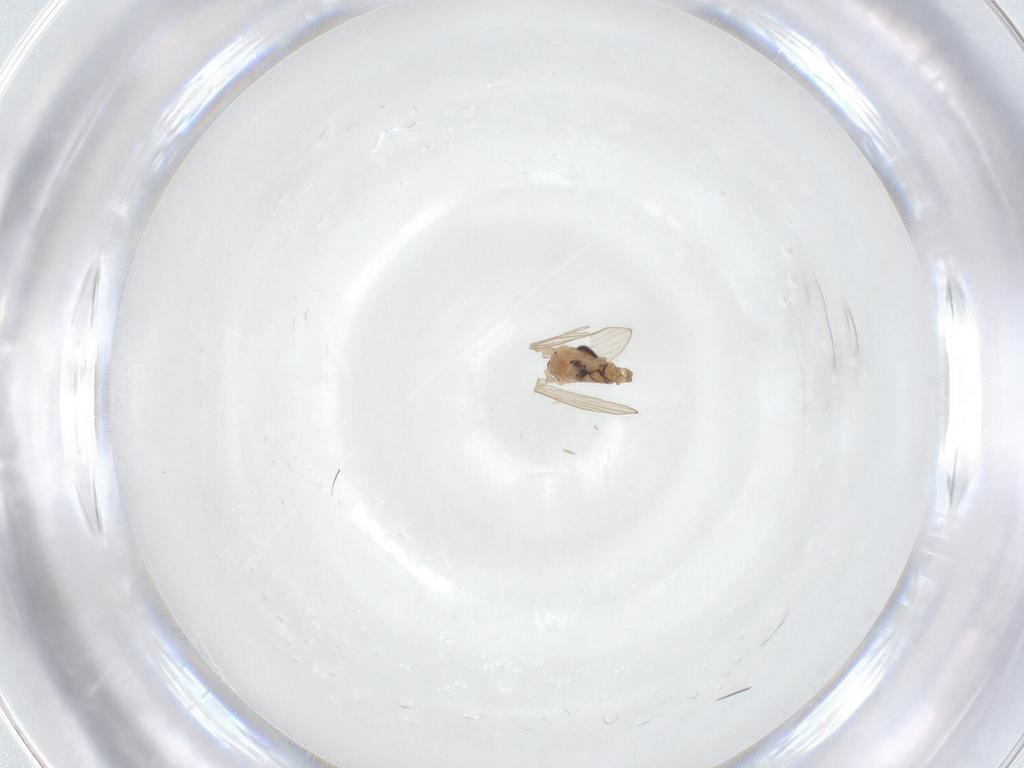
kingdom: Animalia
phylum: Arthropoda
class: Insecta
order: Diptera
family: Psychodidae
